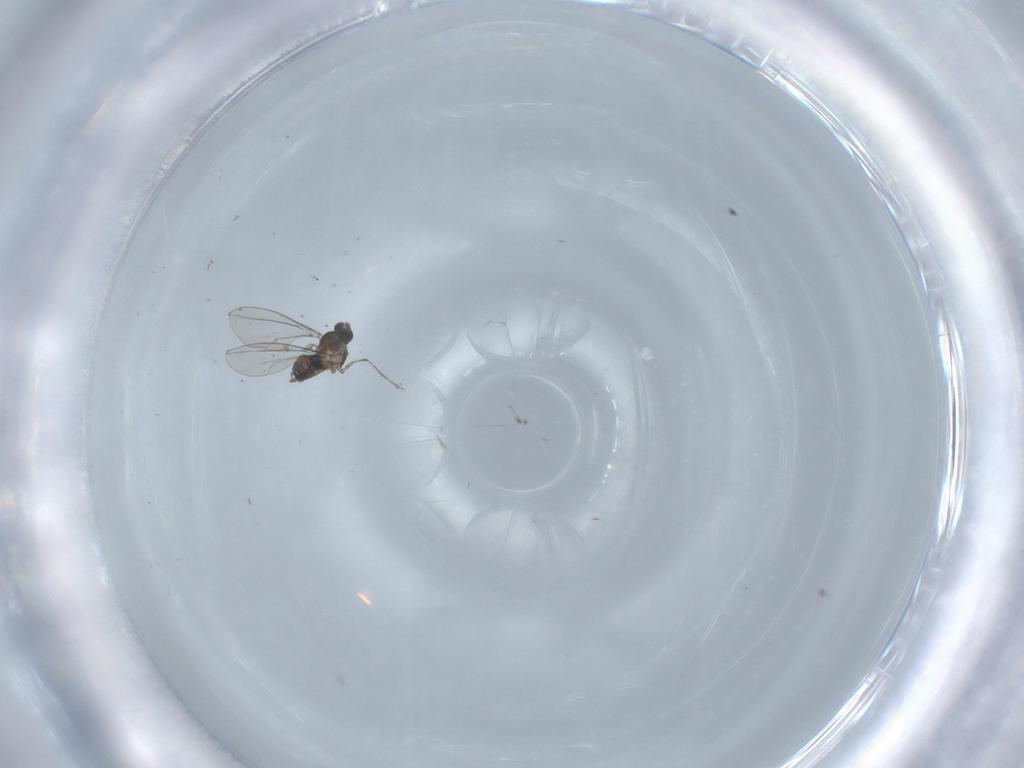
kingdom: Animalia
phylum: Arthropoda
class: Insecta
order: Diptera
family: Cecidomyiidae
